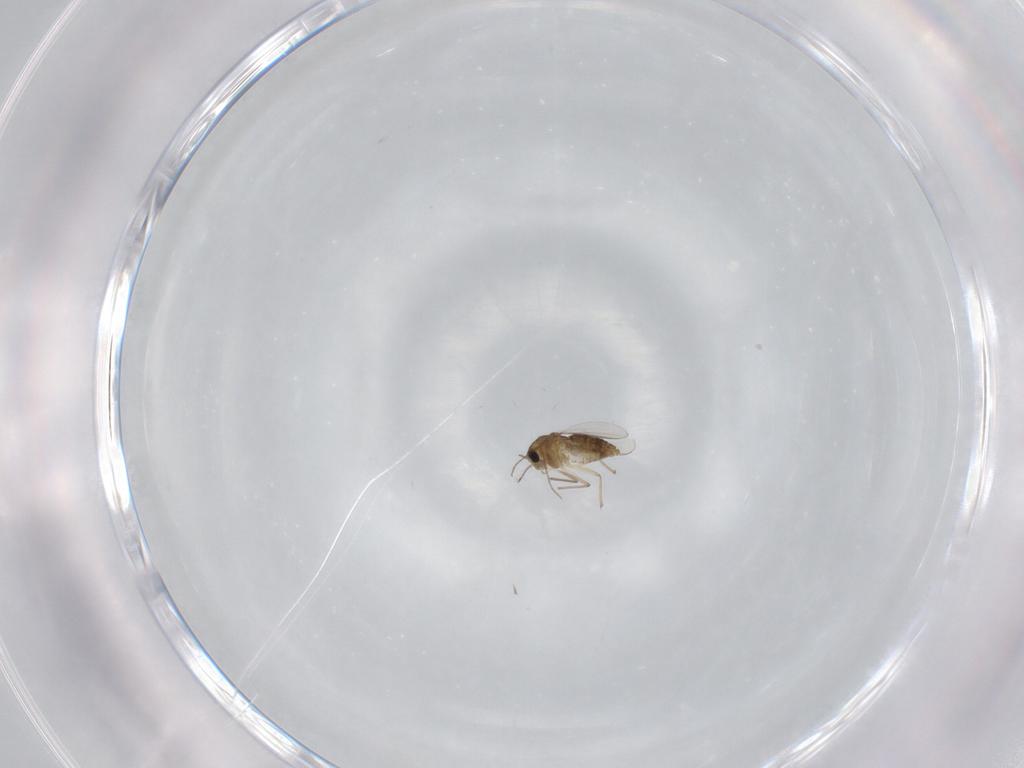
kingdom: Animalia
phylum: Arthropoda
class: Insecta
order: Diptera
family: Chironomidae
